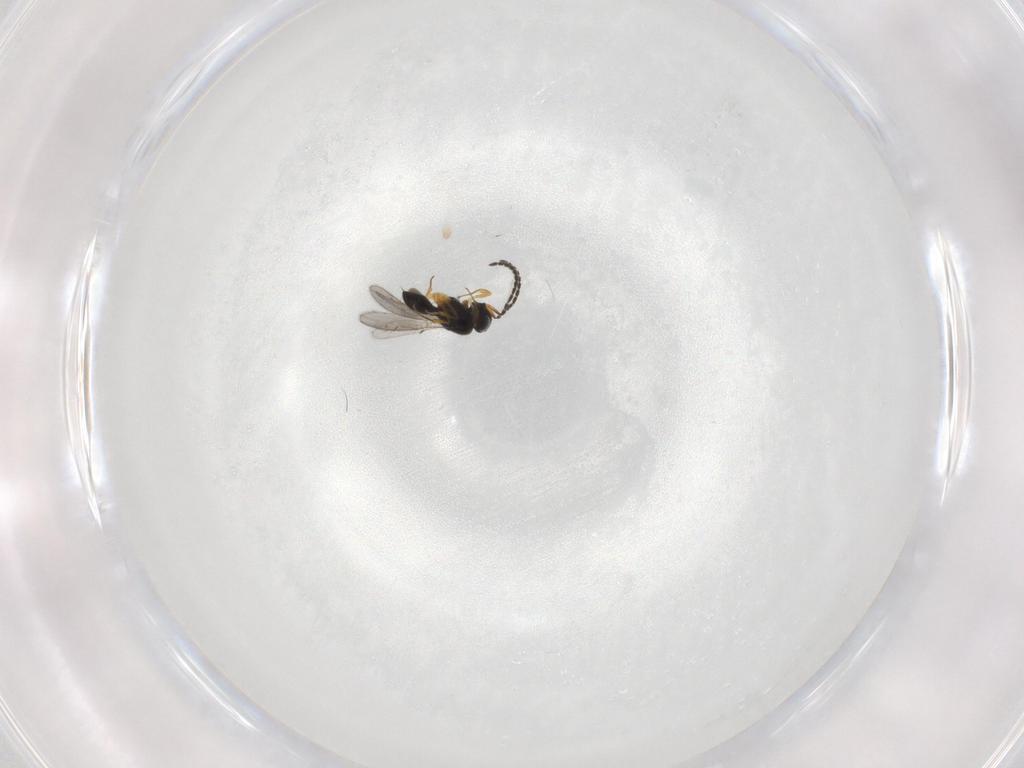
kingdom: Animalia
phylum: Arthropoda
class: Insecta
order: Hymenoptera
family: Scelionidae
